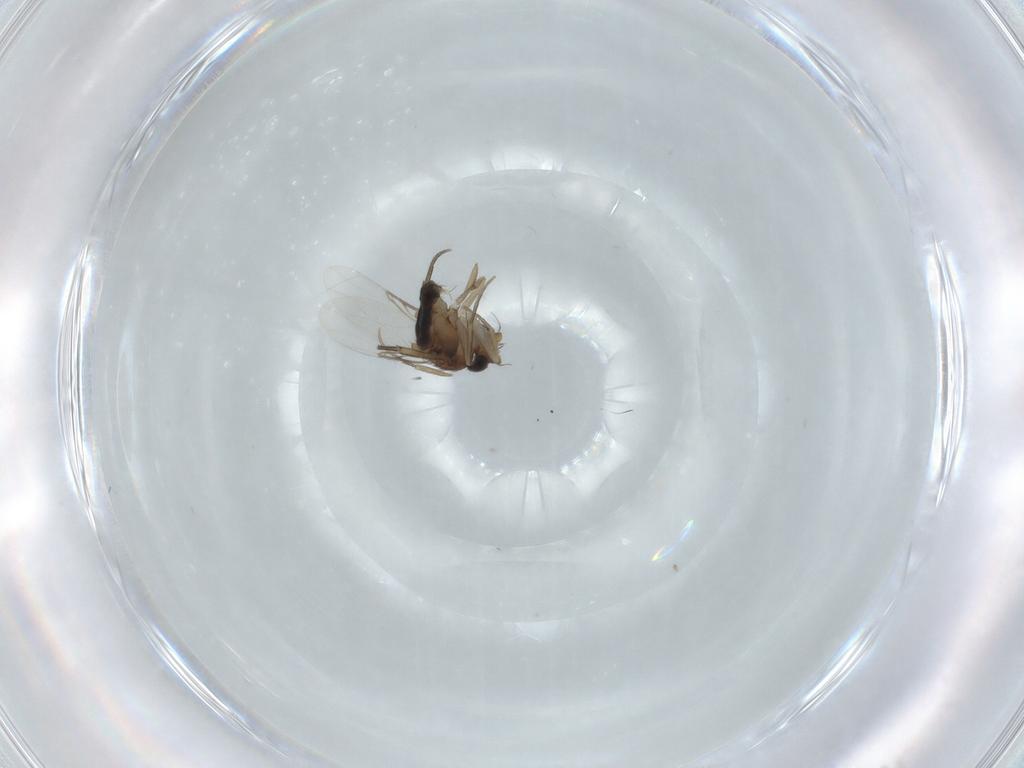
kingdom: Animalia
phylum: Arthropoda
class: Insecta
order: Diptera
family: Phoridae
